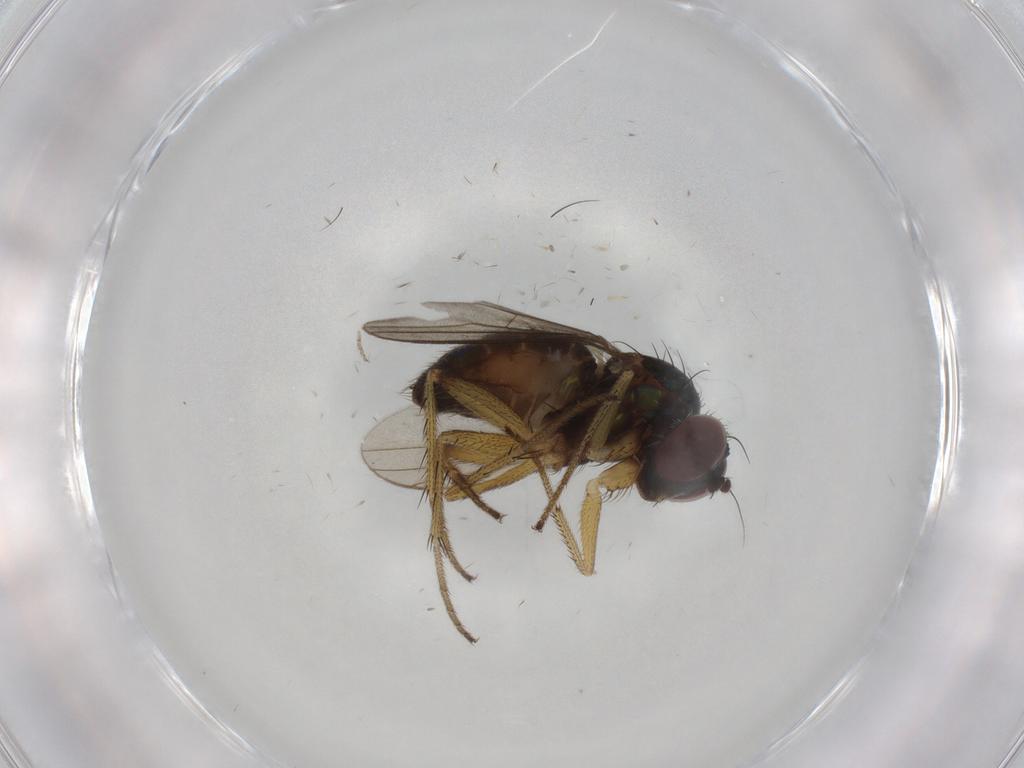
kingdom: Animalia
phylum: Arthropoda
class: Insecta
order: Diptera
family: Dolichopodidae
